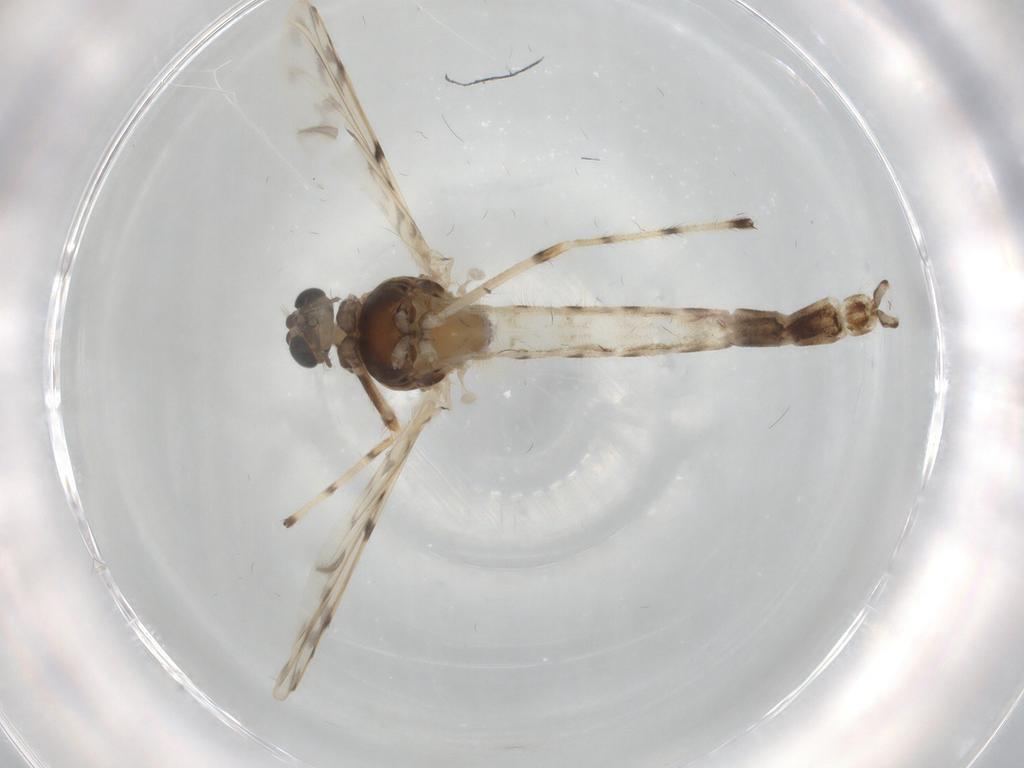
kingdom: Animalia
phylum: Arthropoda
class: Insecta
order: Diptera
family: Chironomidae
